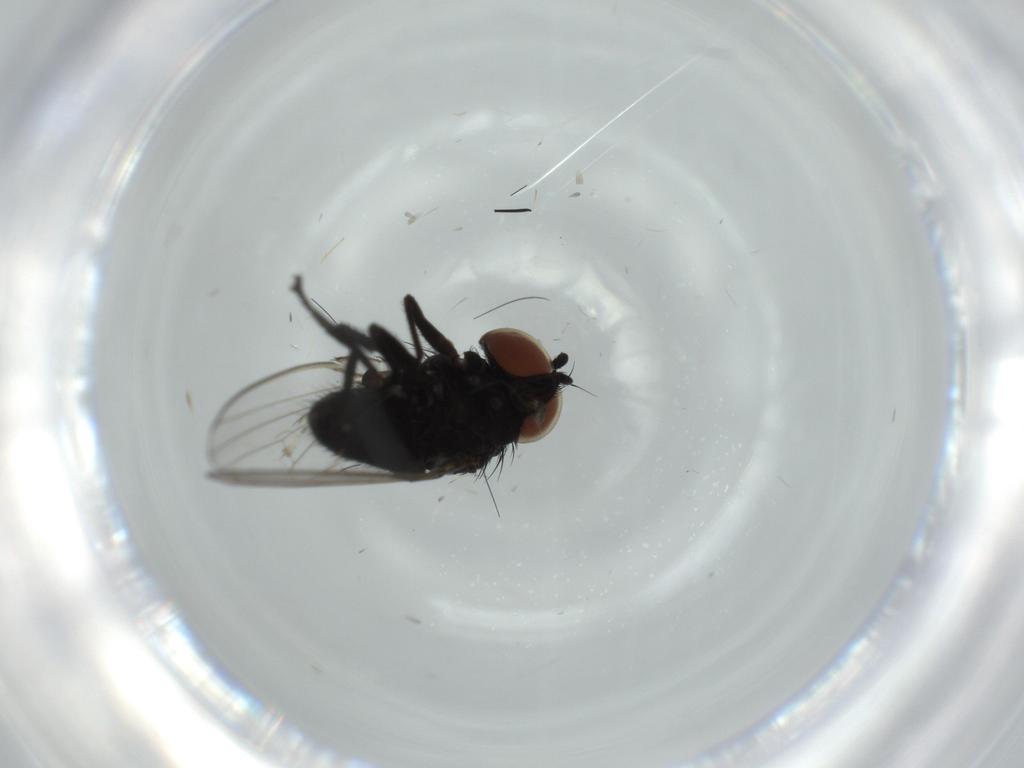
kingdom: Animalia
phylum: Arthropoda
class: Insecta
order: Diptera
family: Milichiidae
